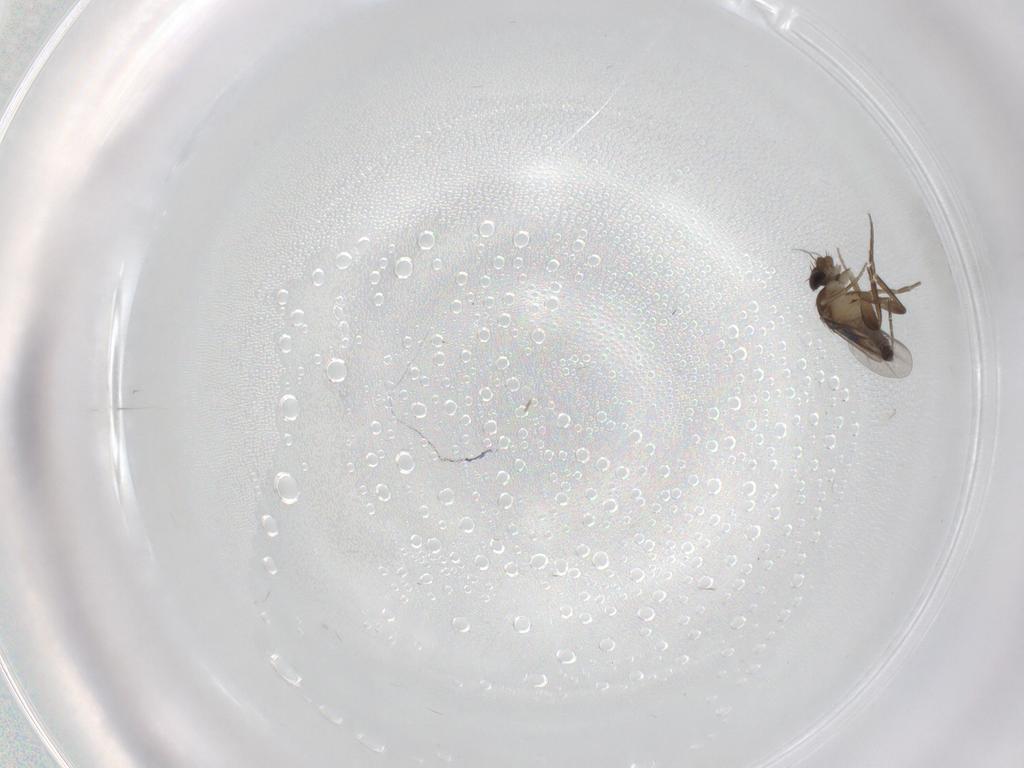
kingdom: Animalia
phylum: Arthropoda
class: Insecta
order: Diptera
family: Phoridae
